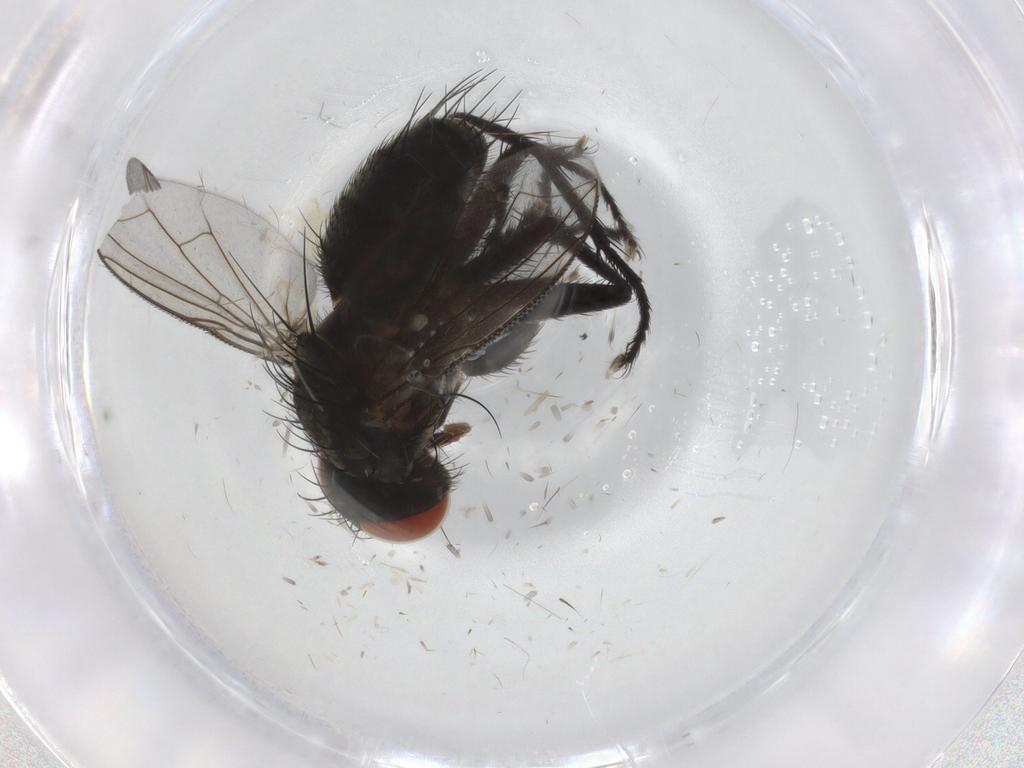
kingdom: Animalia
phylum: Arthropoda
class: Insecta
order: Diptera
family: Sarcophagidae
